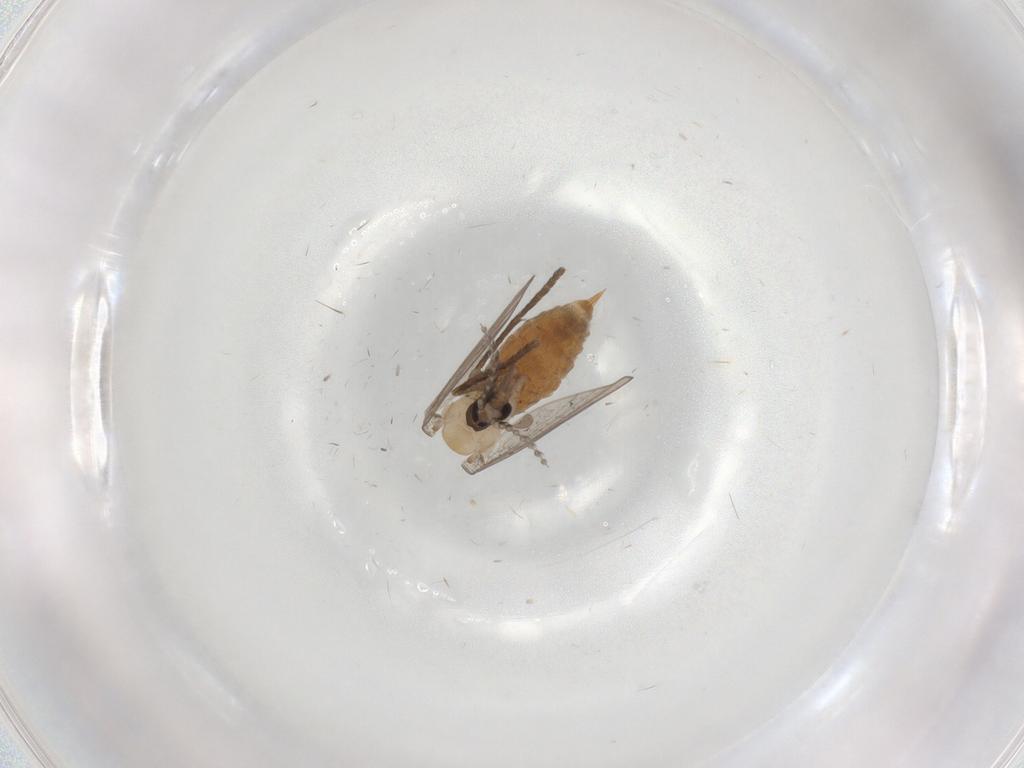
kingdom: Animalia
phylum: Arthropoda
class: Insecta
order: Diptera
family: Psychodidae
